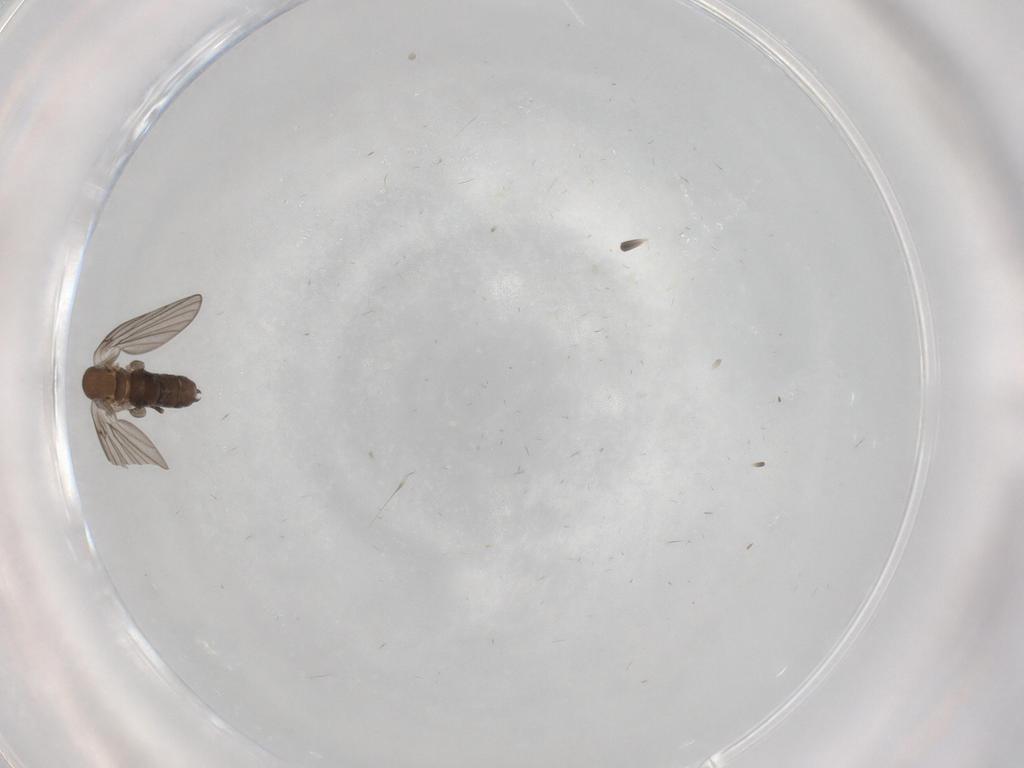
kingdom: Animalia
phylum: Arthropoda
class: Insecta
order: Diptera
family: Psychodidae
